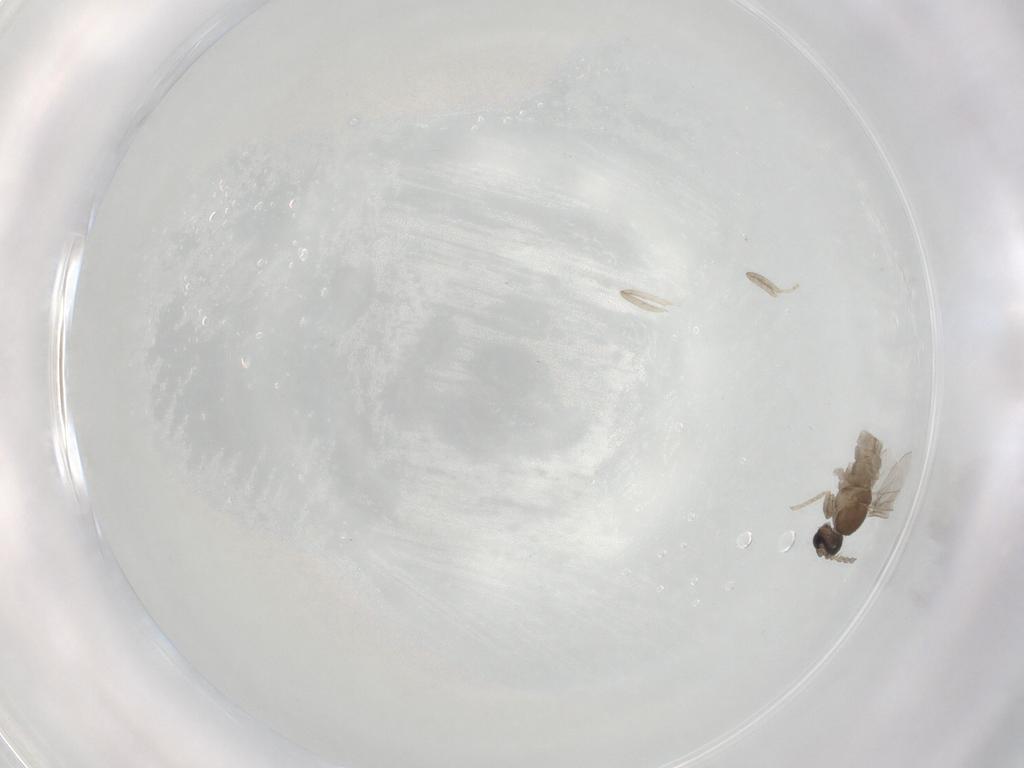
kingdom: Animalia
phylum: Arthropoda
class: Insecta
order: Diptera
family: Cecidomyiidae
